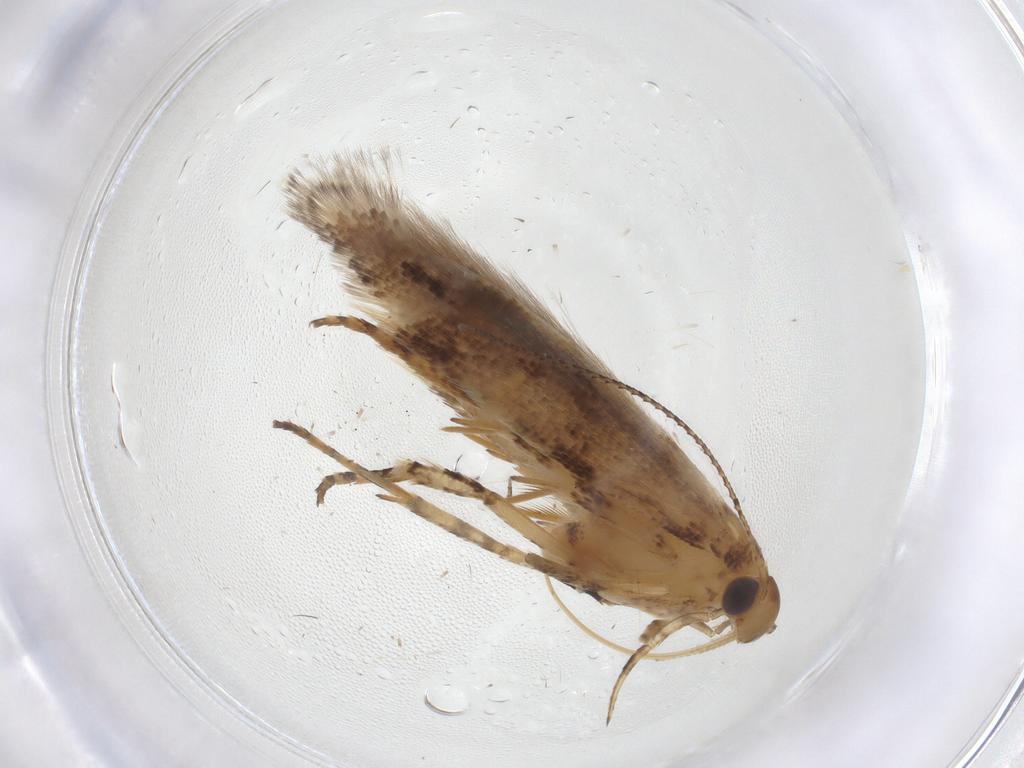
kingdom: Animalia
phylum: Arthropoda
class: Insecta
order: Lepidoptera
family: Gelechiidae
